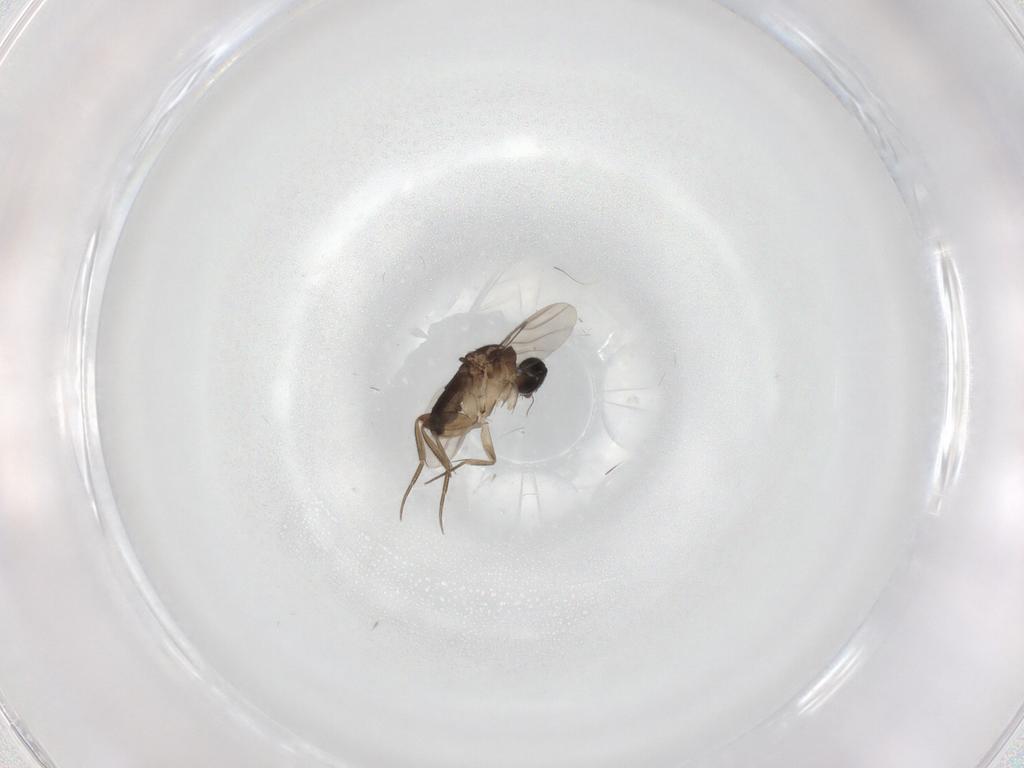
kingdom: Animalia
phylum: Arthropoda
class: Insecta
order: Diptera
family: Phoridae
